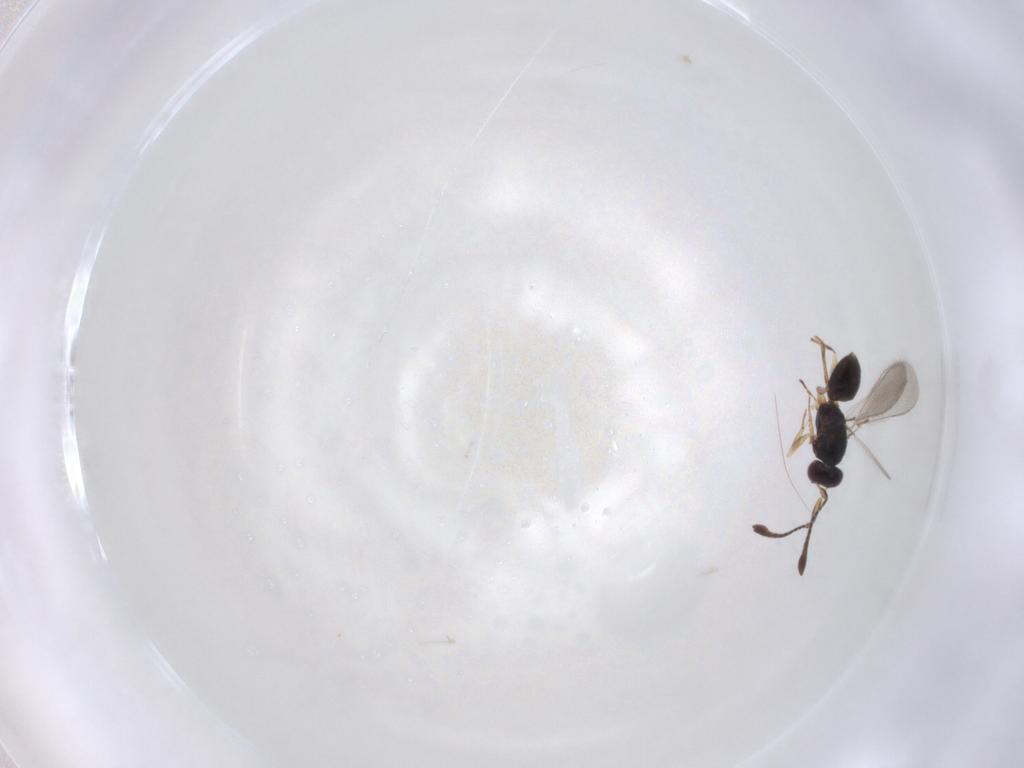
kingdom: Animalia
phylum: Arthropoda
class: Insecta
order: Hymenoptera
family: Mymaridae
